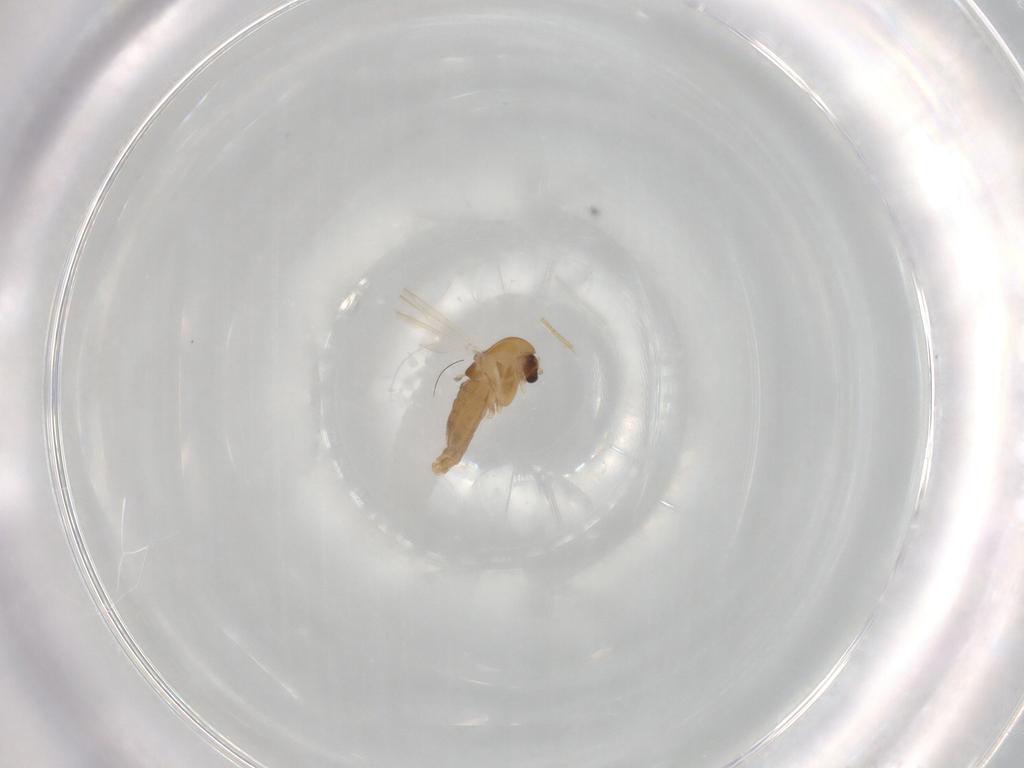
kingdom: Animalia
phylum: Arthropoda
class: Insecta
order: Diptera
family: Chironomidae
